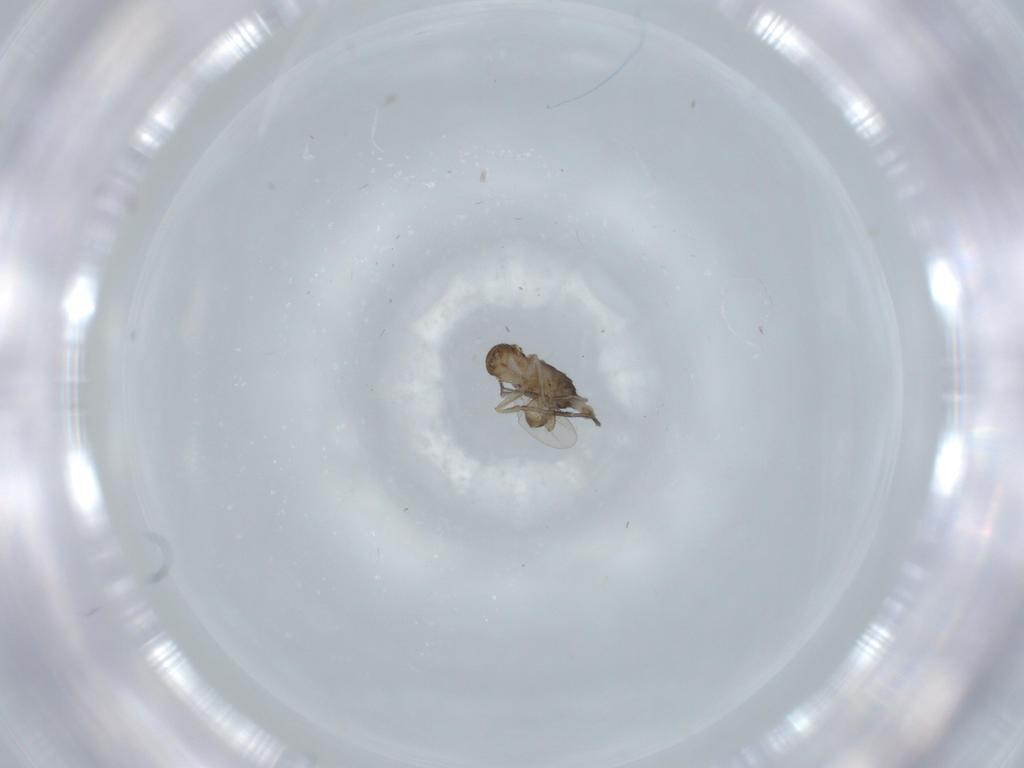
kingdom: Animalia
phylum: Arthropoda
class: Insecta
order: Diptera
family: Phoridae
